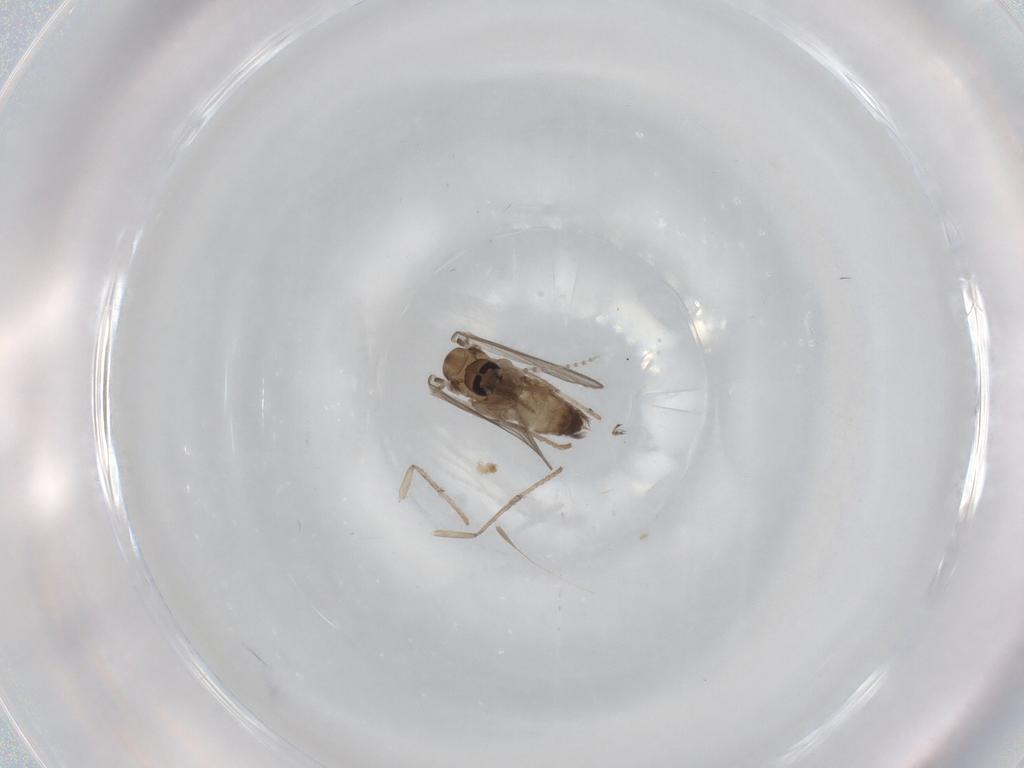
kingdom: Animalia
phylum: Arthropoda
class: Insecta
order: Diptera
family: Psychodidae
